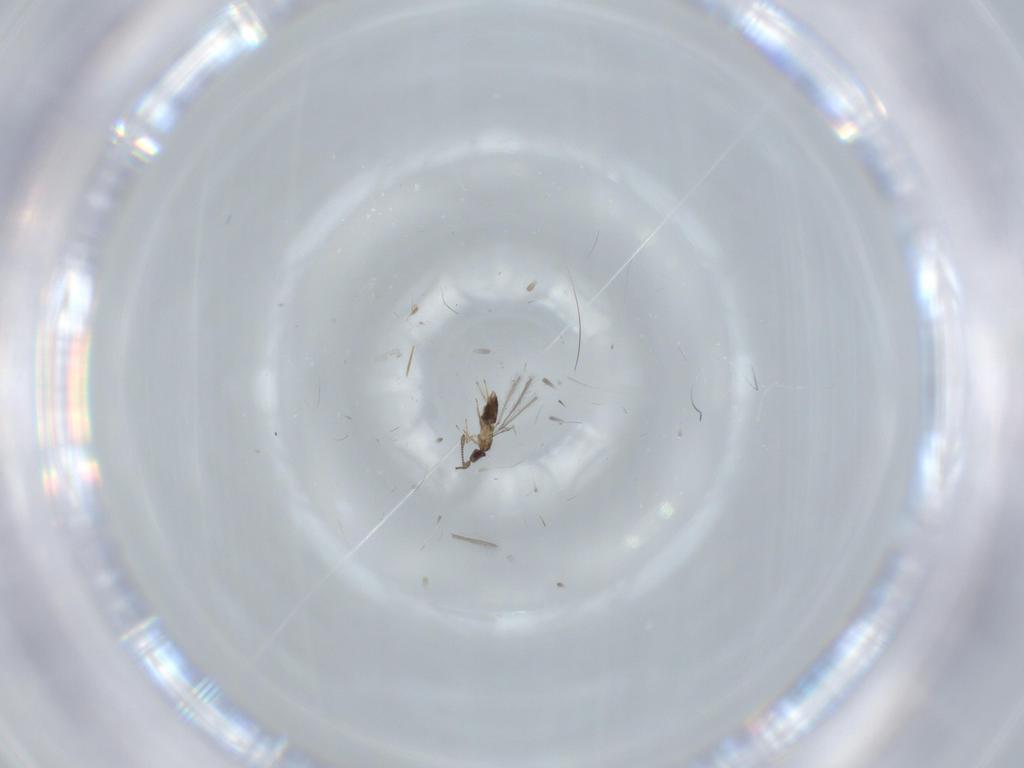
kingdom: Animalia
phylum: Arthropoda
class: Insecta
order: Hymenoptera
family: Mymaridae
